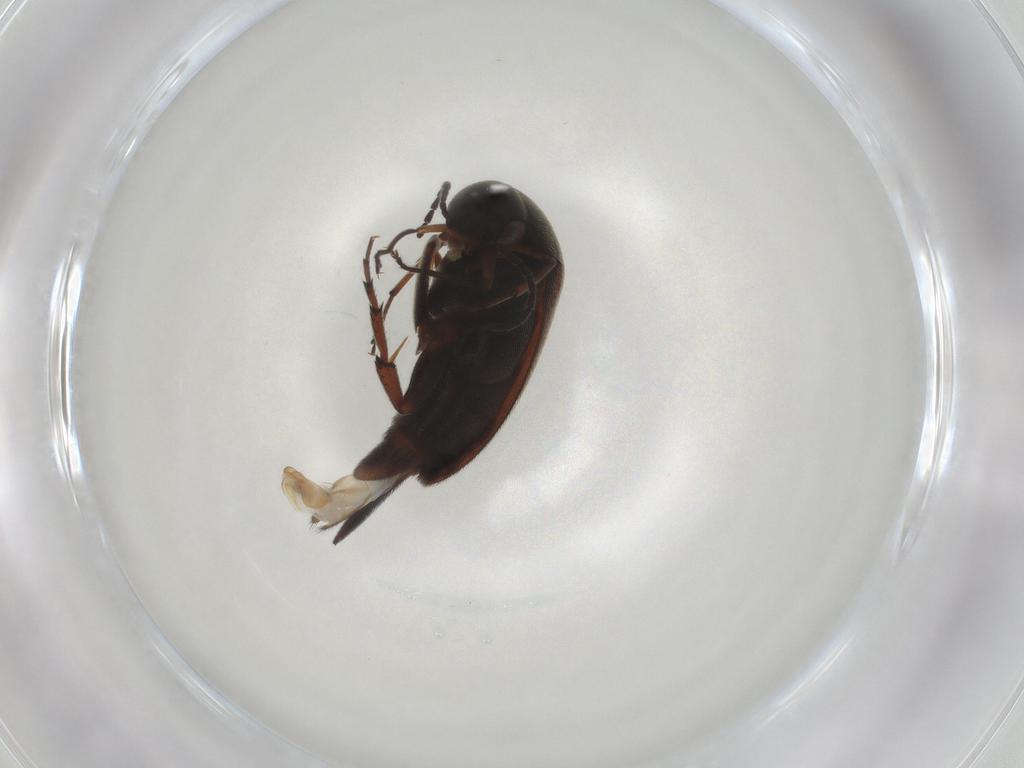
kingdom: Animalia
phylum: Arthropoda
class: Insecta
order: Coleoptera
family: Mordellidae
